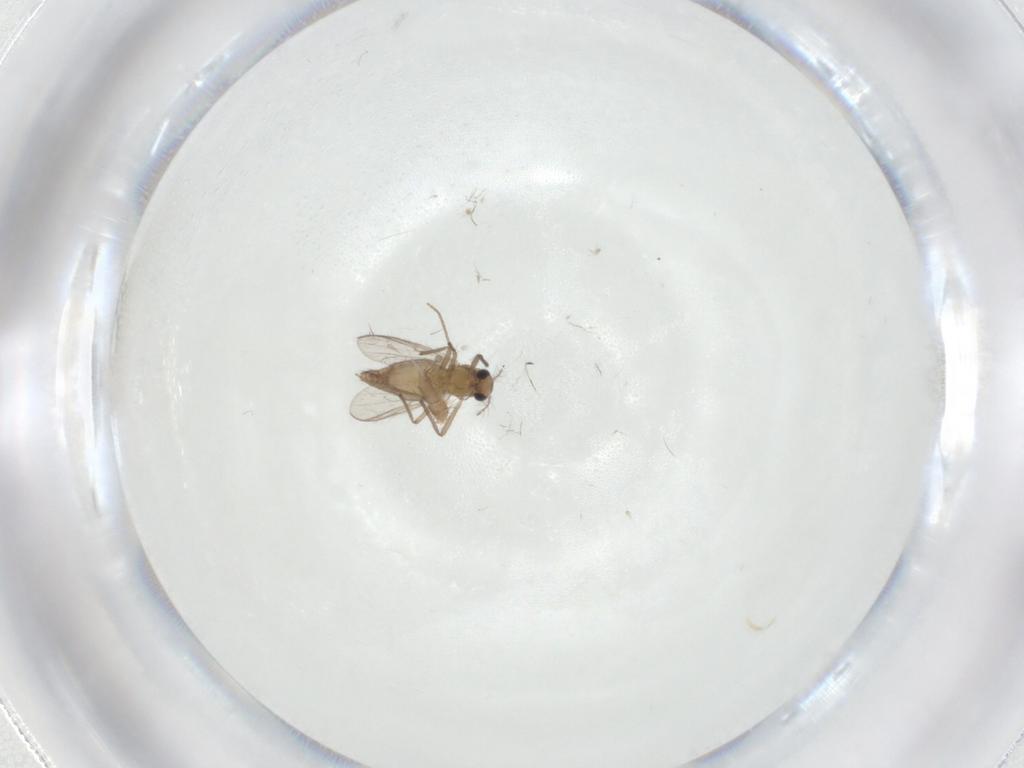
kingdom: Animalia
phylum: Arthropoda
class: Insecta
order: Diptera
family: Chironomidae
